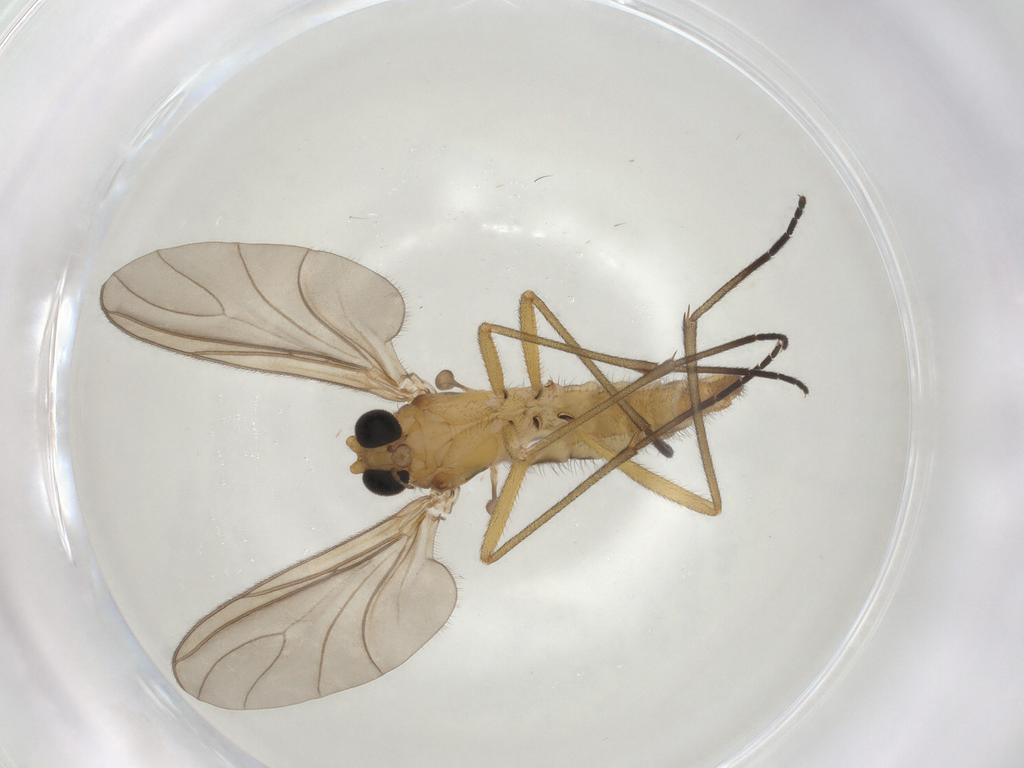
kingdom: Animalia
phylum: Arthropoda
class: Insecta
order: Diptera
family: Sciaridae
